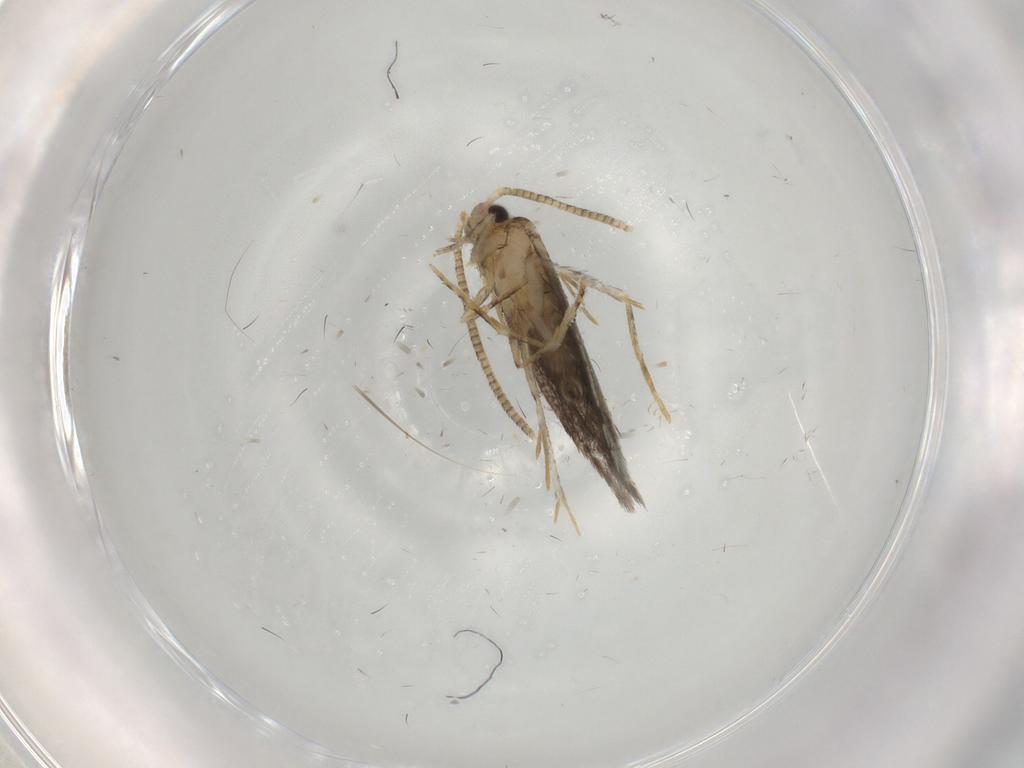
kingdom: Animalia
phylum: Arthropoda
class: Insecta
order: Lepidoptera
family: Tineidae
